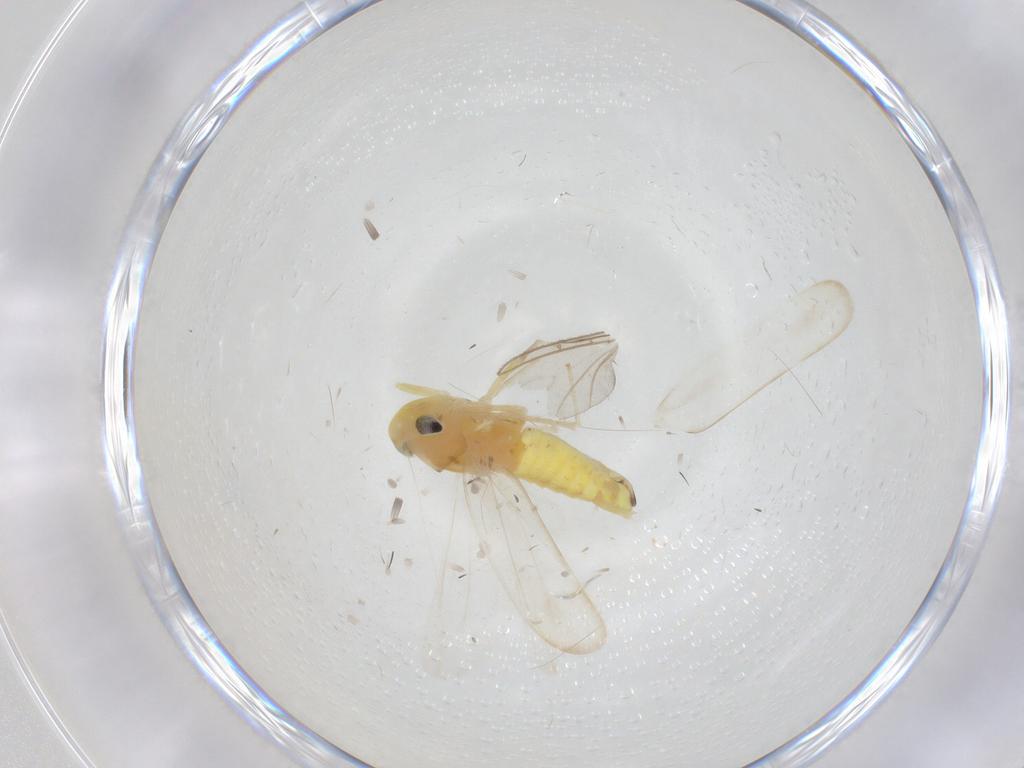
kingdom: Animalia
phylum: Arthropoda
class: Insecta
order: Hemiptera
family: Cicadellidae
